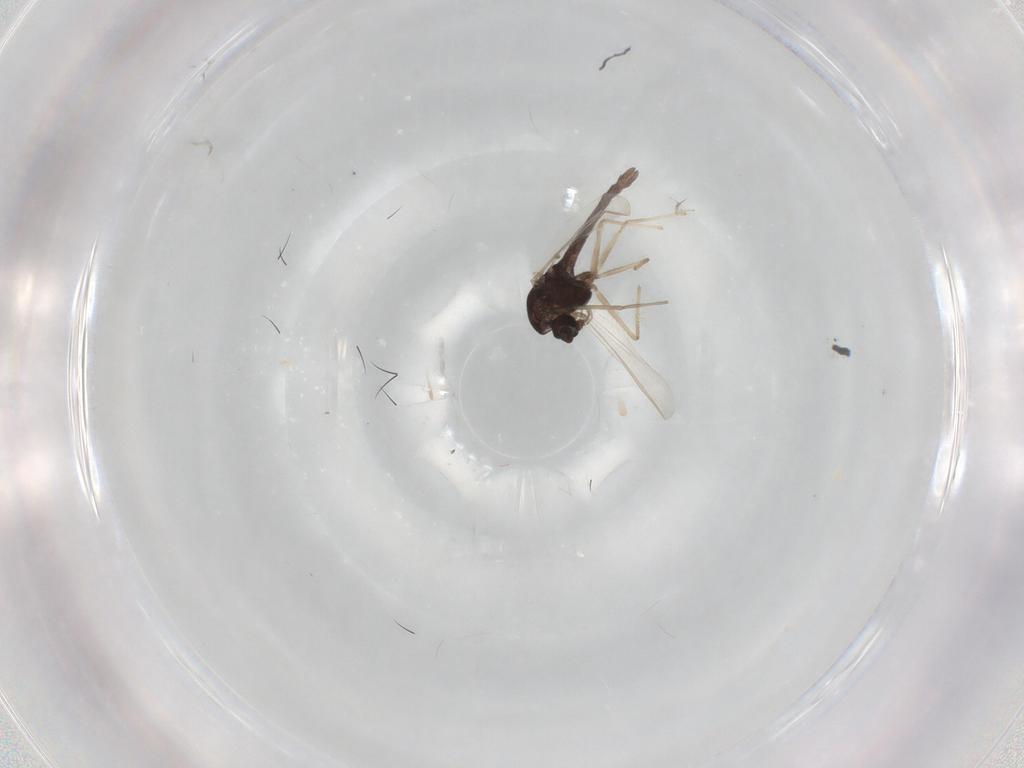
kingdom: Animalia
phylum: Arthropoda
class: Insecta
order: Diptera
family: Chironomidae
